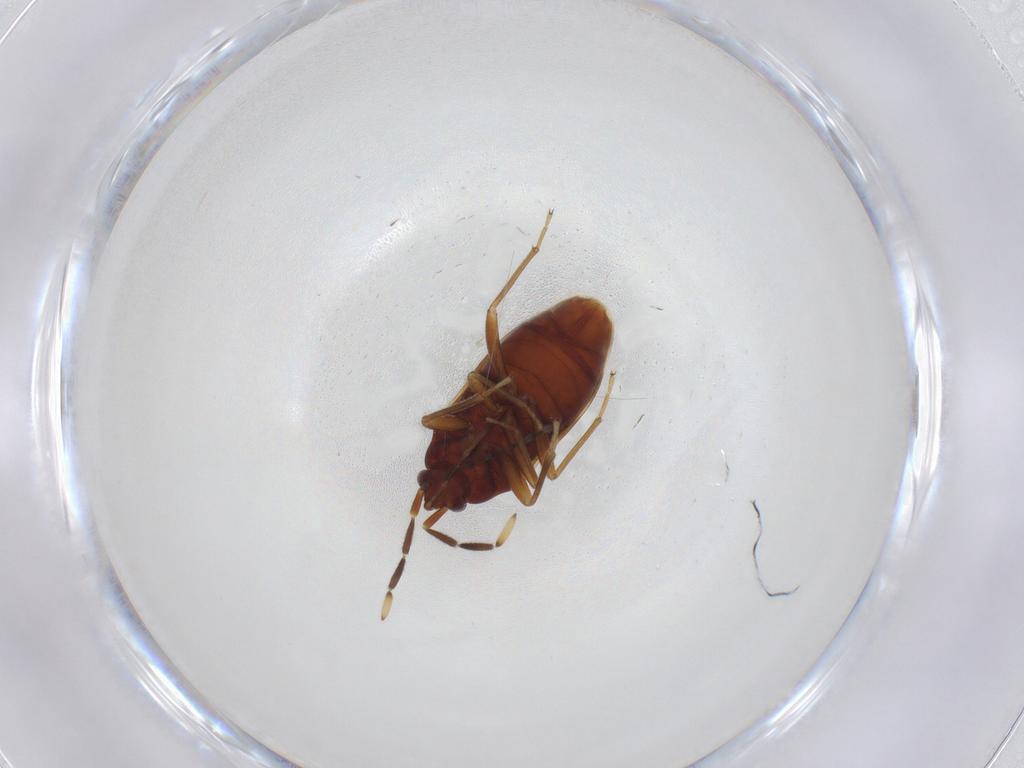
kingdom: Animalia
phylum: Arthropoda
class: Insecta
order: Hemiptera
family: Rhyparochromidae
